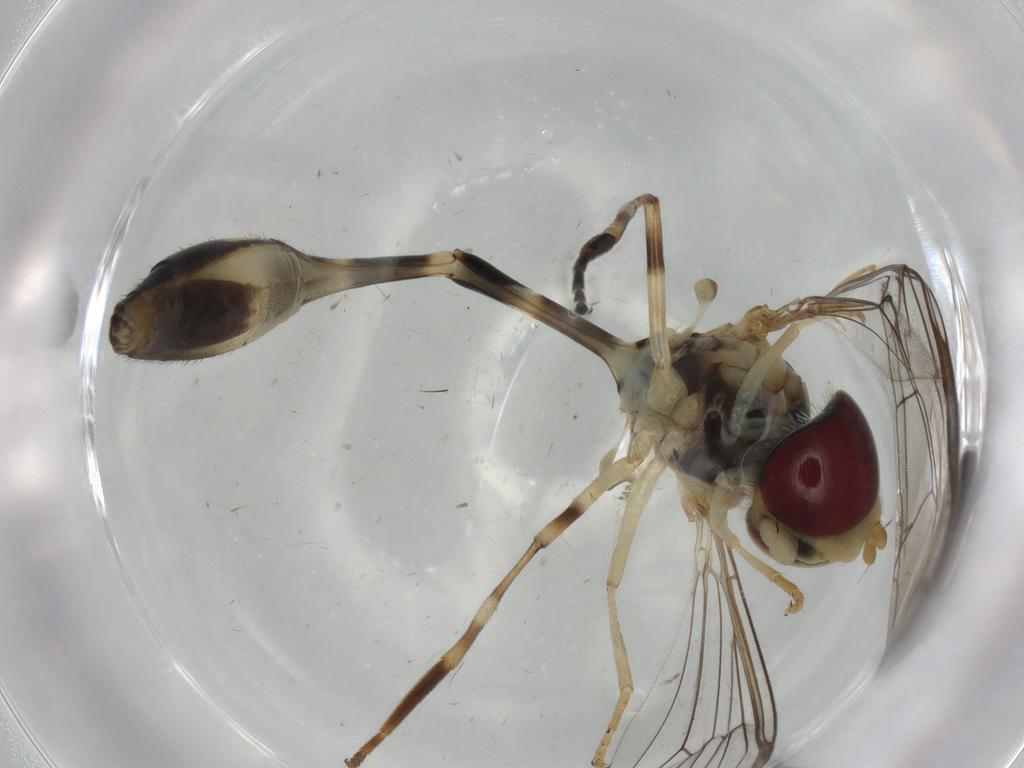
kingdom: Animalia
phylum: Arthropoda
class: Insecta
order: Diptera
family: Syrphidae
